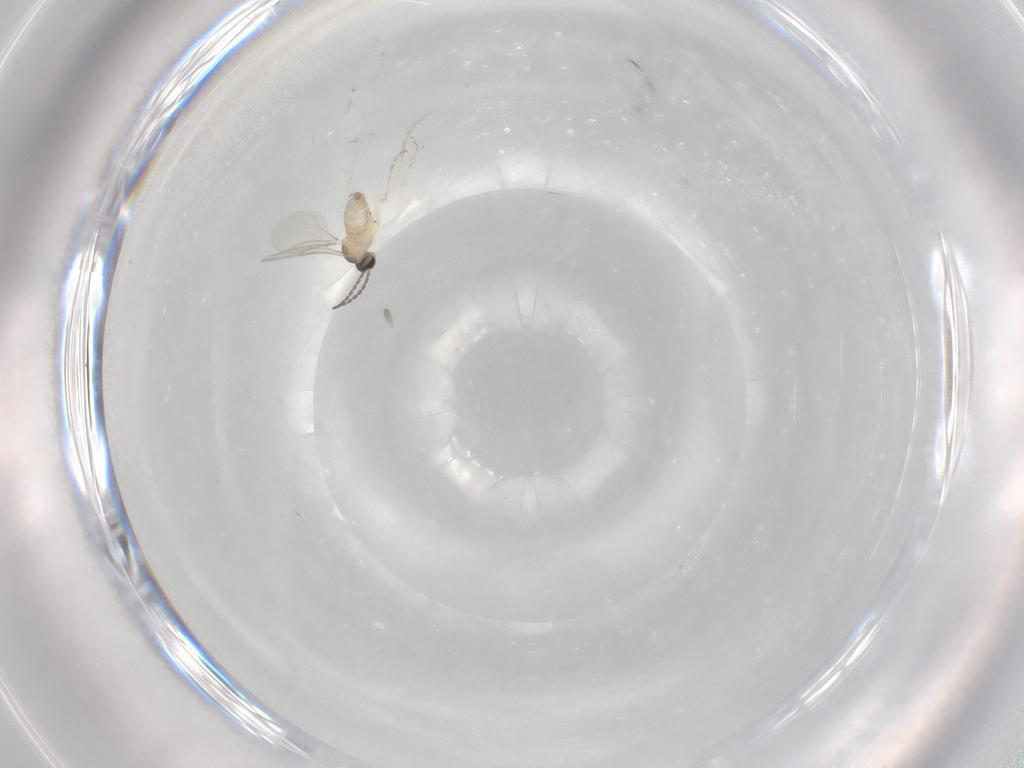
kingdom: Animalia
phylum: Arthropoda
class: Insecta
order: Diptera
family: Cecidomyiidae
